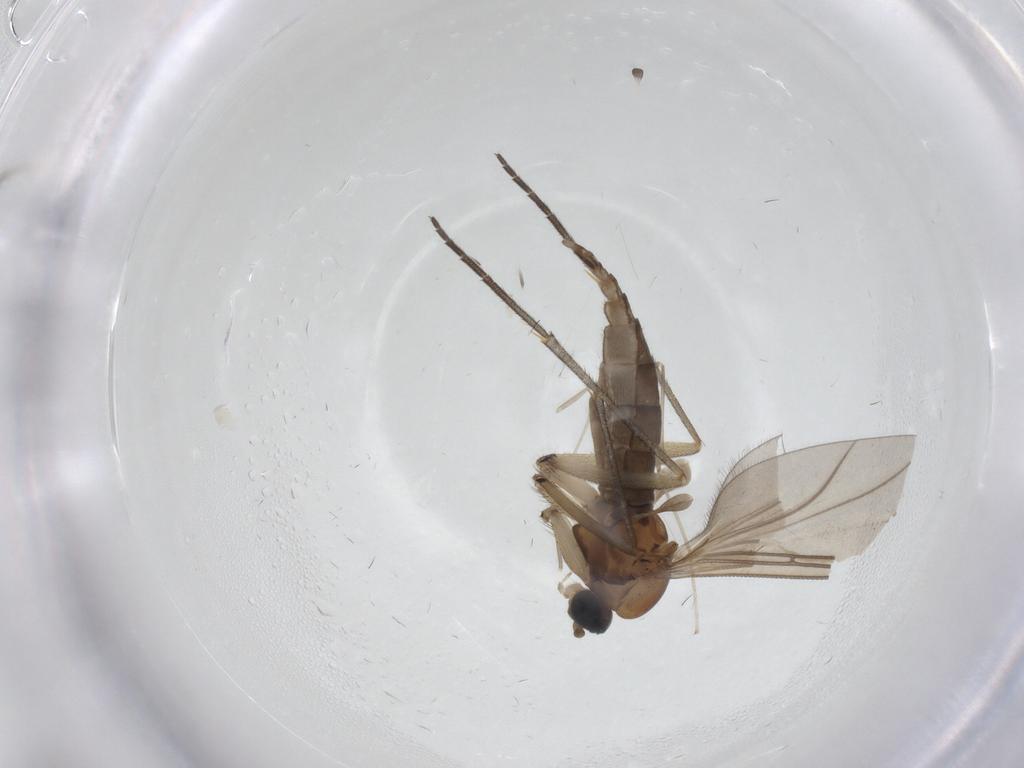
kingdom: Animalia
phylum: Arthropoda
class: Insecta
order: Diptera
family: Sciaridae
